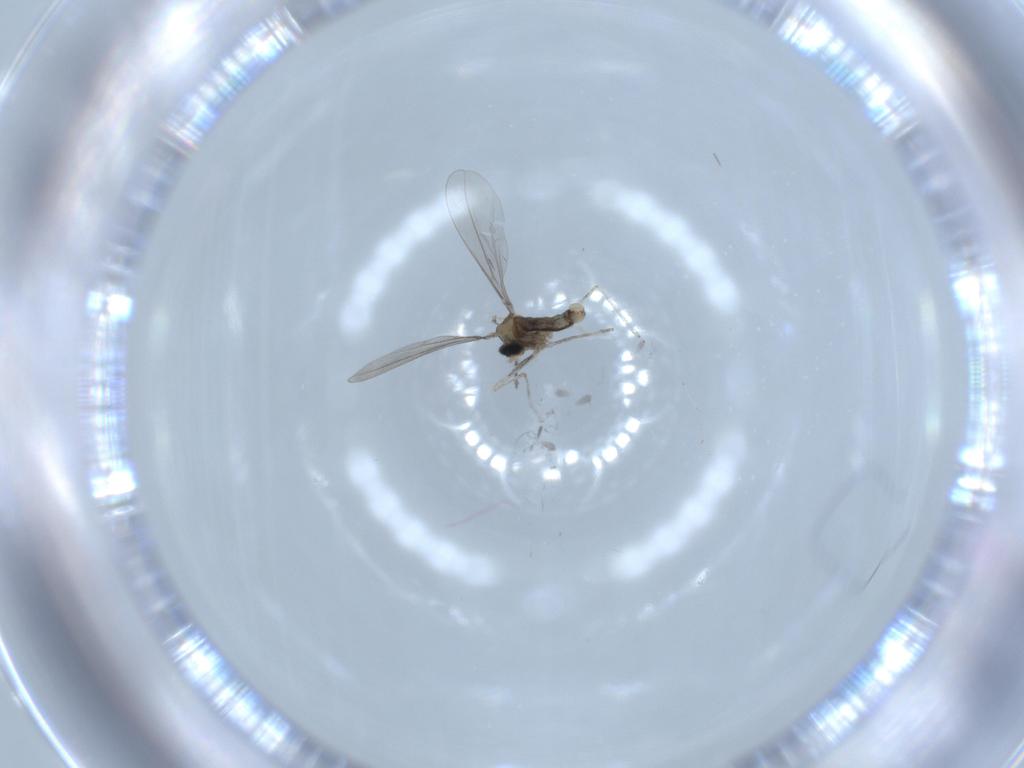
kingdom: Animalia
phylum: Arthropoda
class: Insecta
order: Diptera
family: Cecidomyiidae
